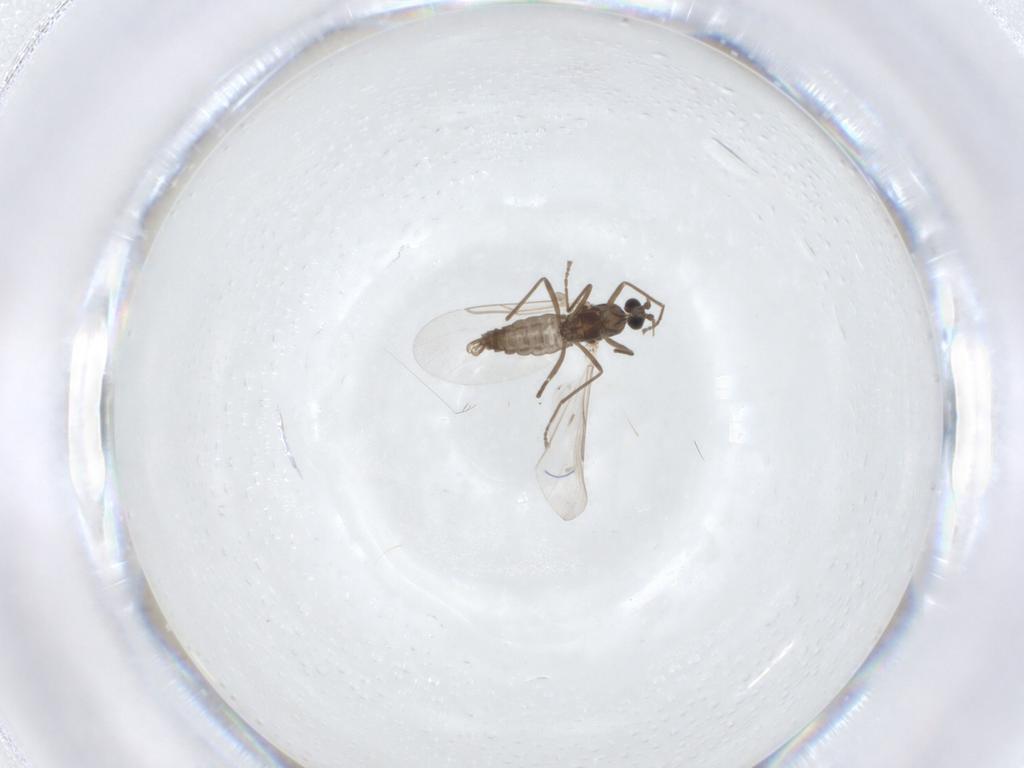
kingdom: Animalia
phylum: Arthropoda
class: Insecta
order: Diptera
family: Cecidomyiidae
